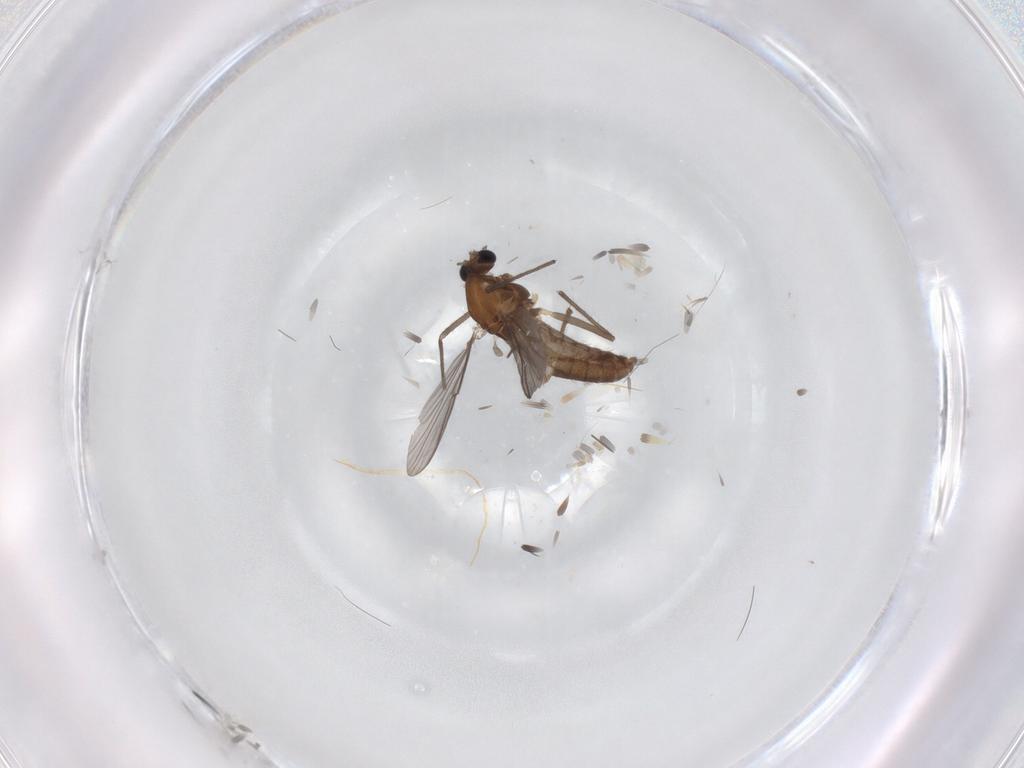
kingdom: Animalia
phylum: Arthropoda
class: Insecta
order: Diptera
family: Chironomidae
